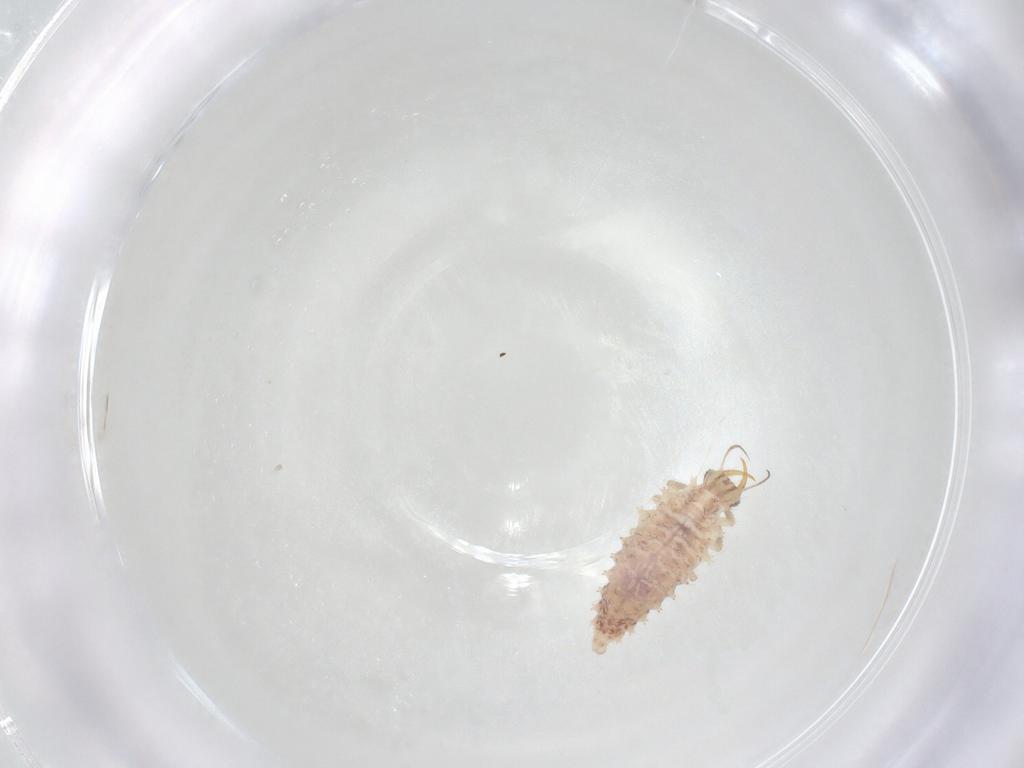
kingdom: Animalia
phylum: Arthropoda
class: Insecta
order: Thysanoptera
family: Phlaeothripidae
